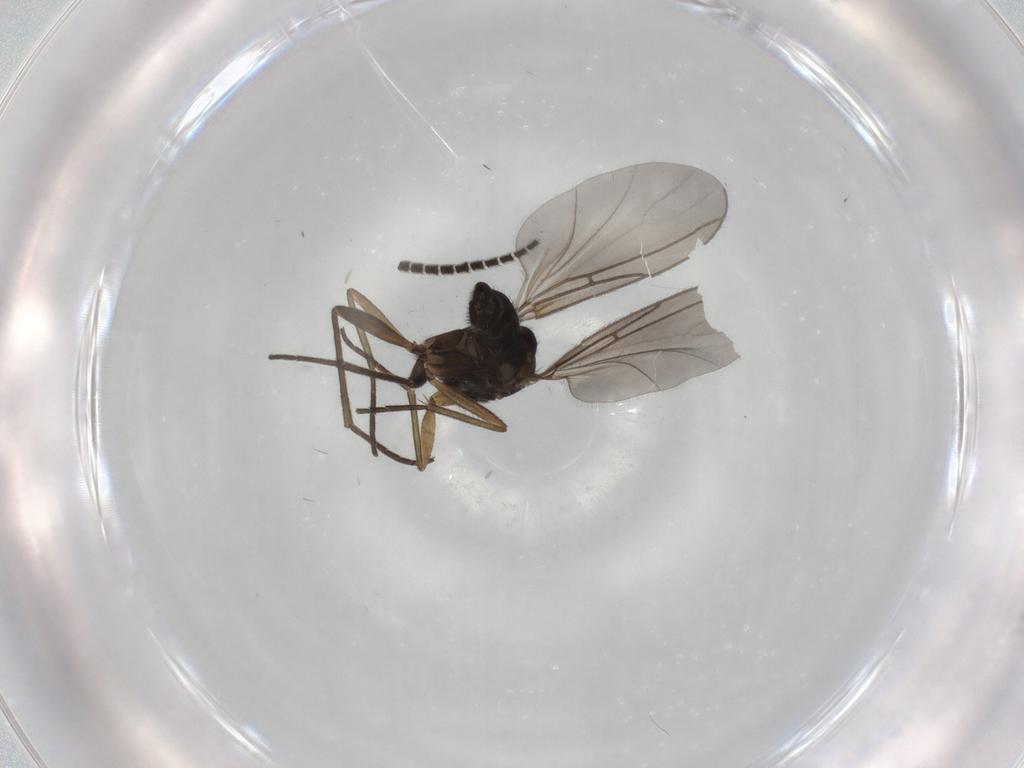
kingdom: Animalia
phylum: Arthropoda
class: Insecta
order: Diptera
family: Sciaridae
